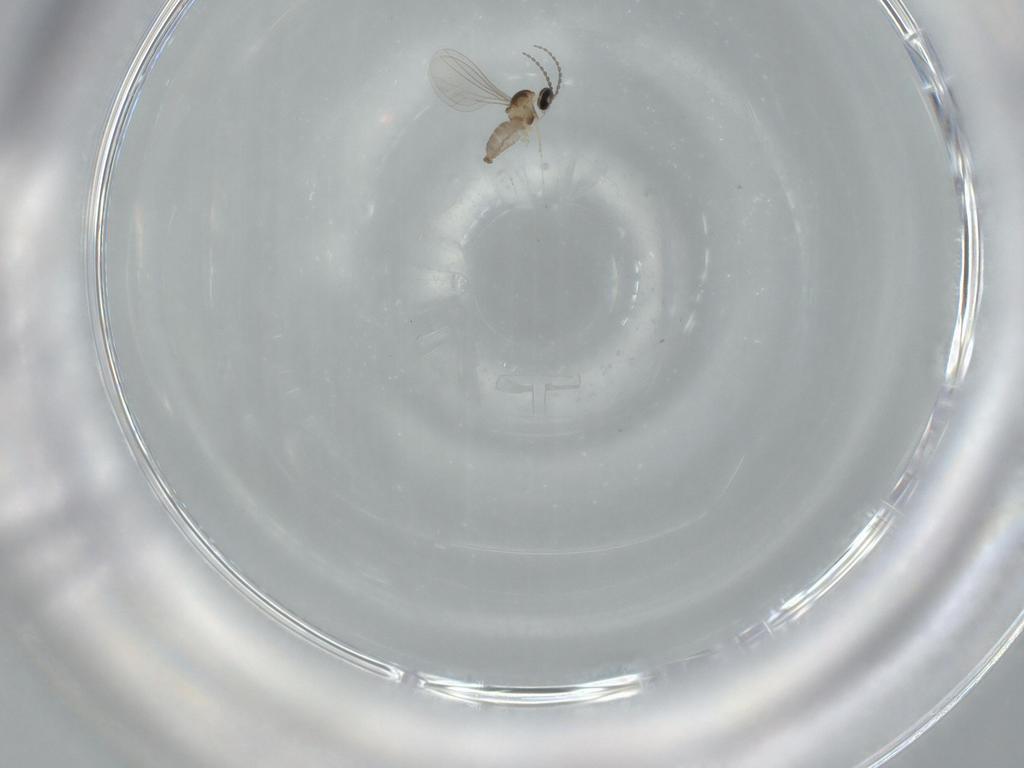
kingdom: Animalia
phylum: Arthropoda
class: Insecta
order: Diptera
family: Cecidomyiidae
